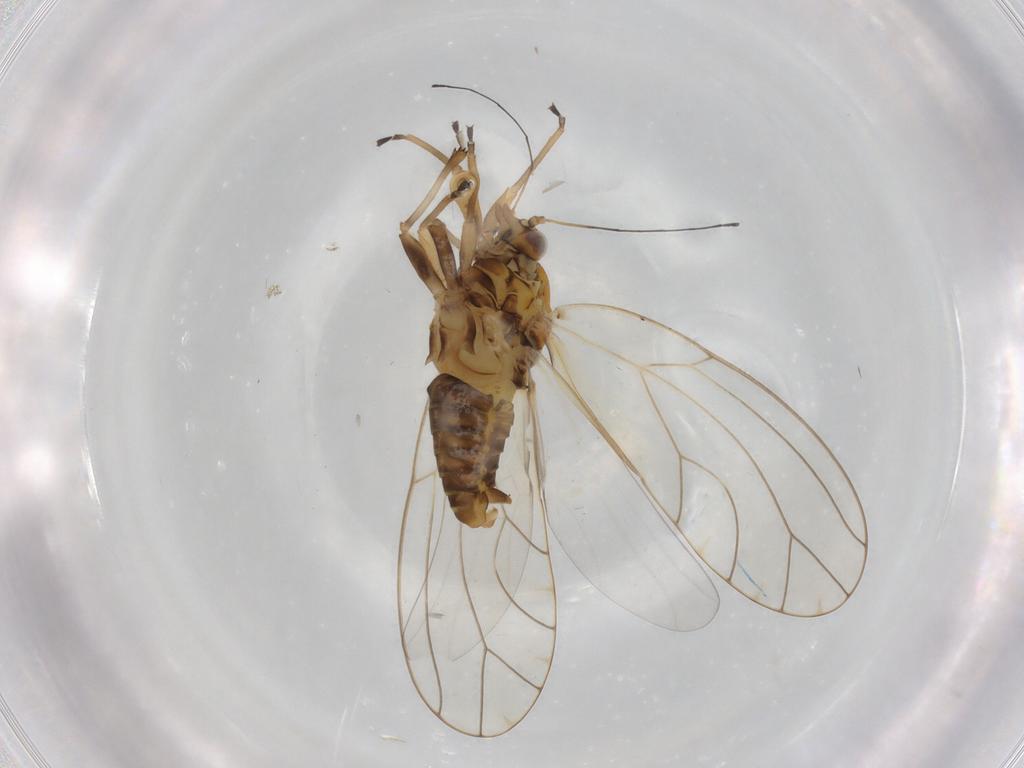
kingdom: Animalia
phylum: Arthropoda
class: Insecta
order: Hemiptera
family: Triozidae
